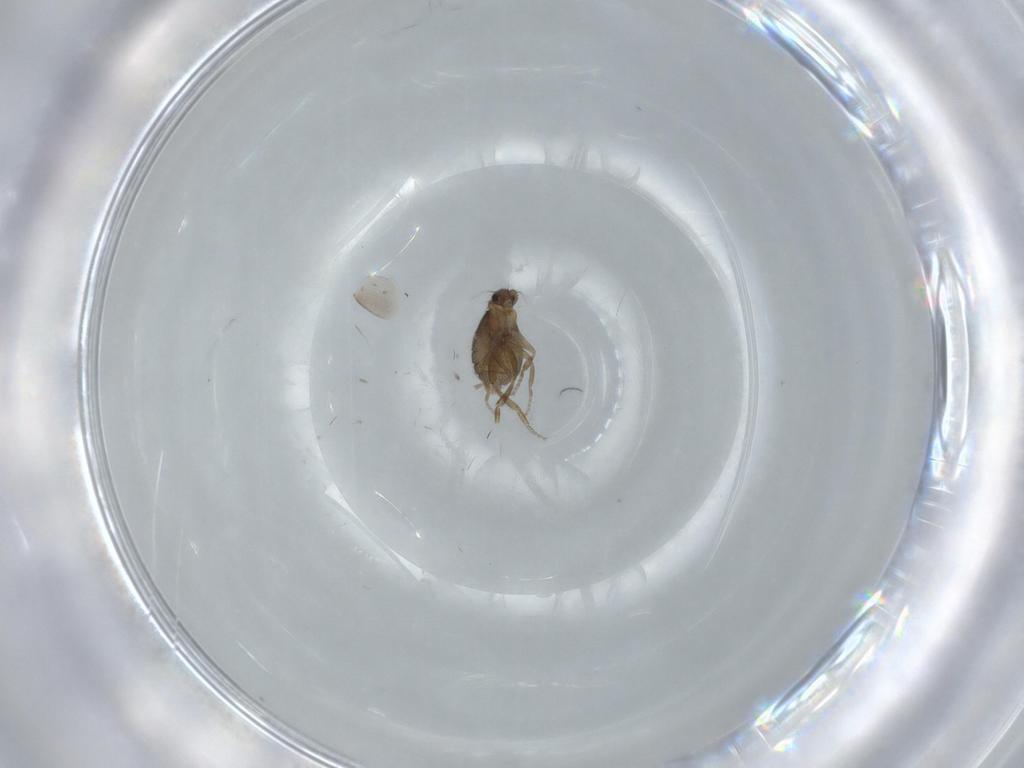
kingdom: Animalia
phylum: Arthropoda
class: Insecta
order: Diptera
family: Phoridae
